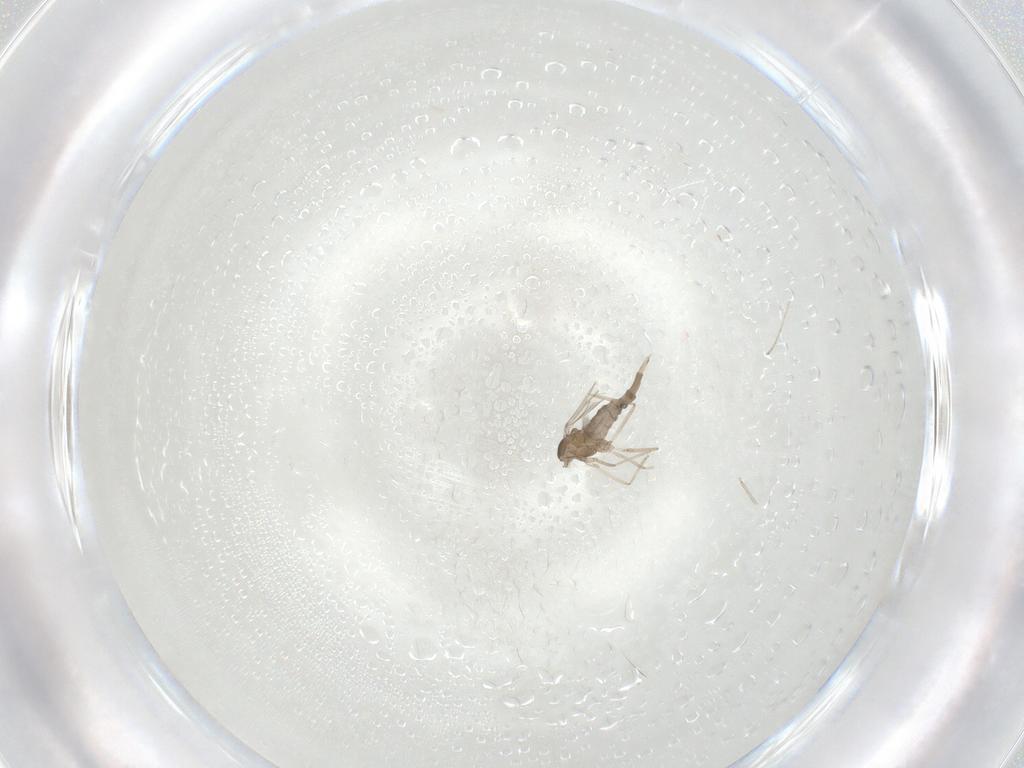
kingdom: Animalia
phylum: Arthropoda
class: Insecta
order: Diptera
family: Cecidomyiidae
